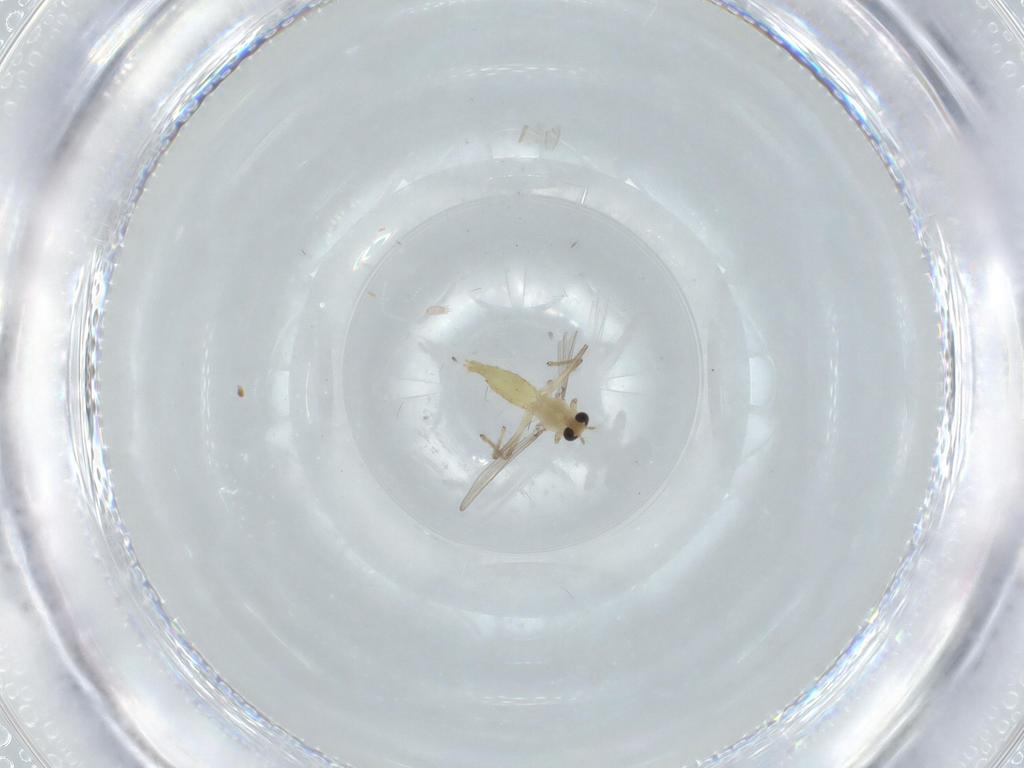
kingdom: Animalia
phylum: Arthropoda
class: Insecta
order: Diptera
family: Chironomidae
